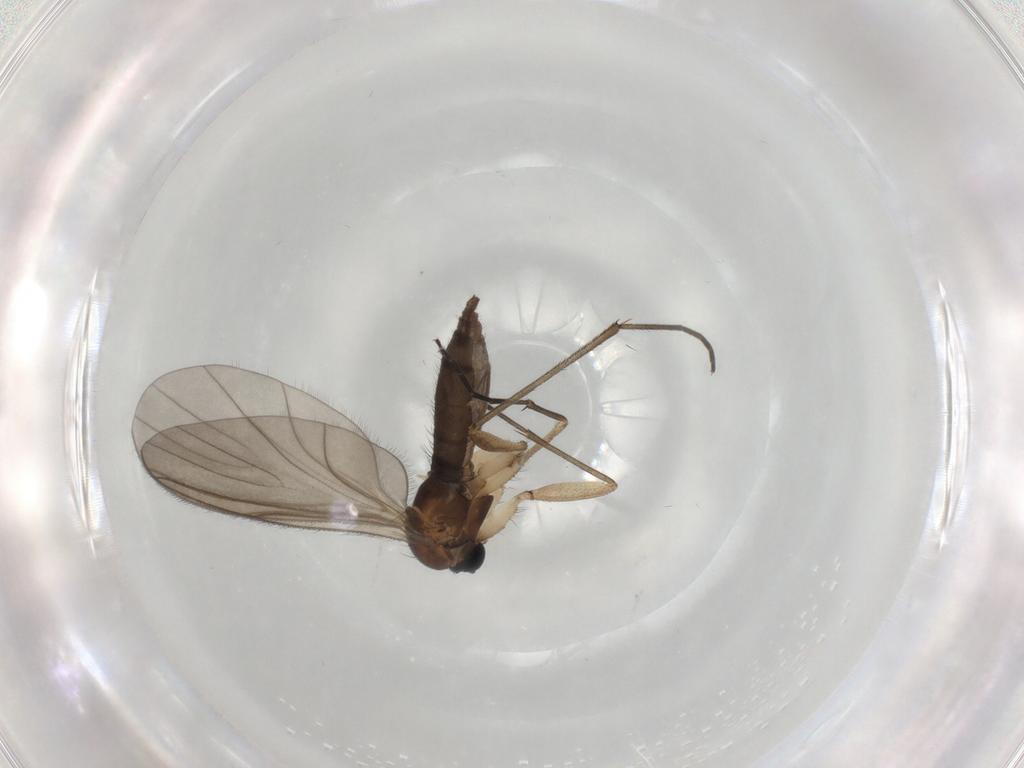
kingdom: Animalia
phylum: Arthropoda
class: Insecta
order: Diptera
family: Sciaridae
